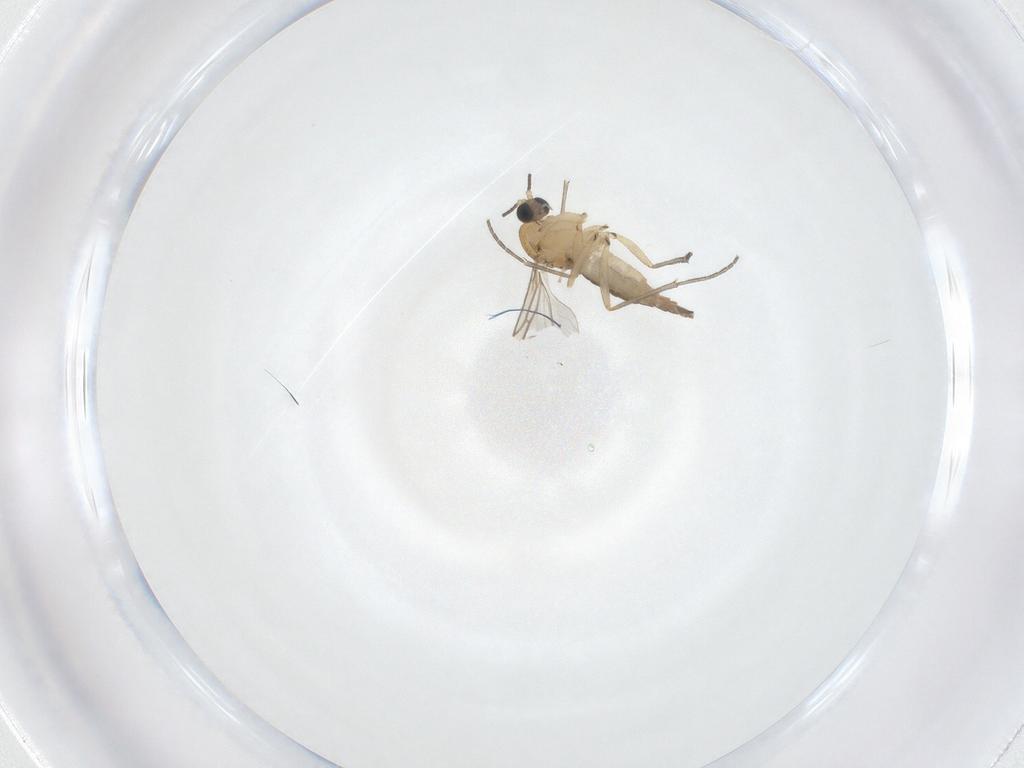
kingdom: Animalia
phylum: Arthropoda
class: Insecta
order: Diptera
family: Sciaridae
